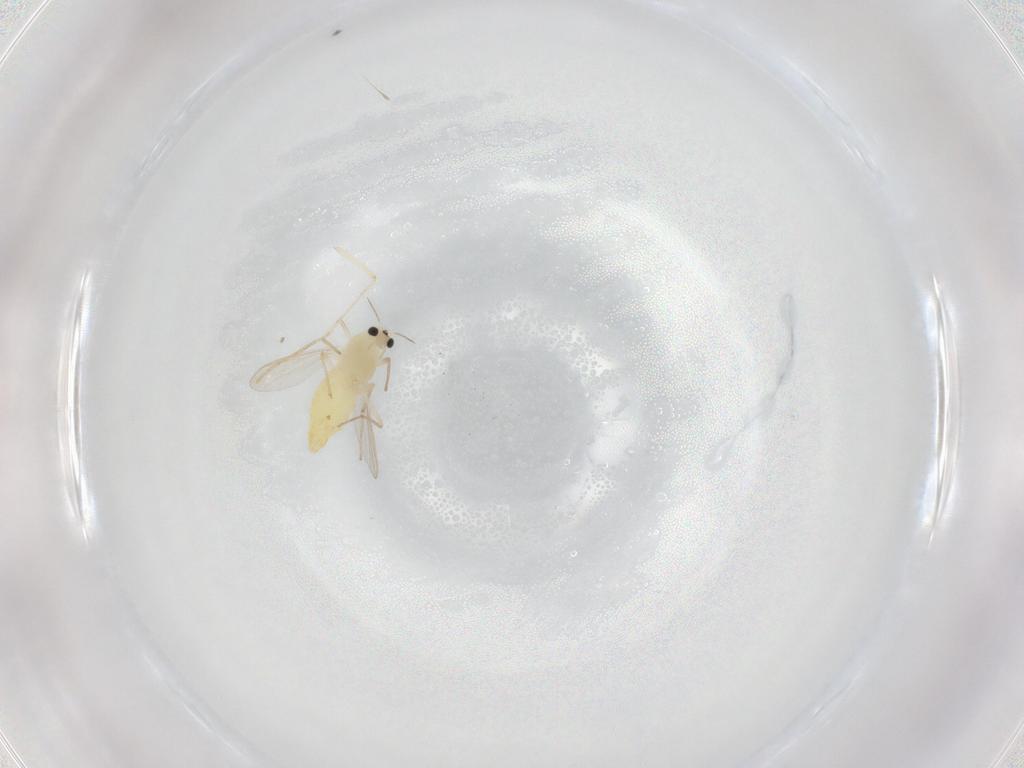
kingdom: Animalia
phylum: Arthropoda
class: Insecta
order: Diptera
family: Chironomidae
